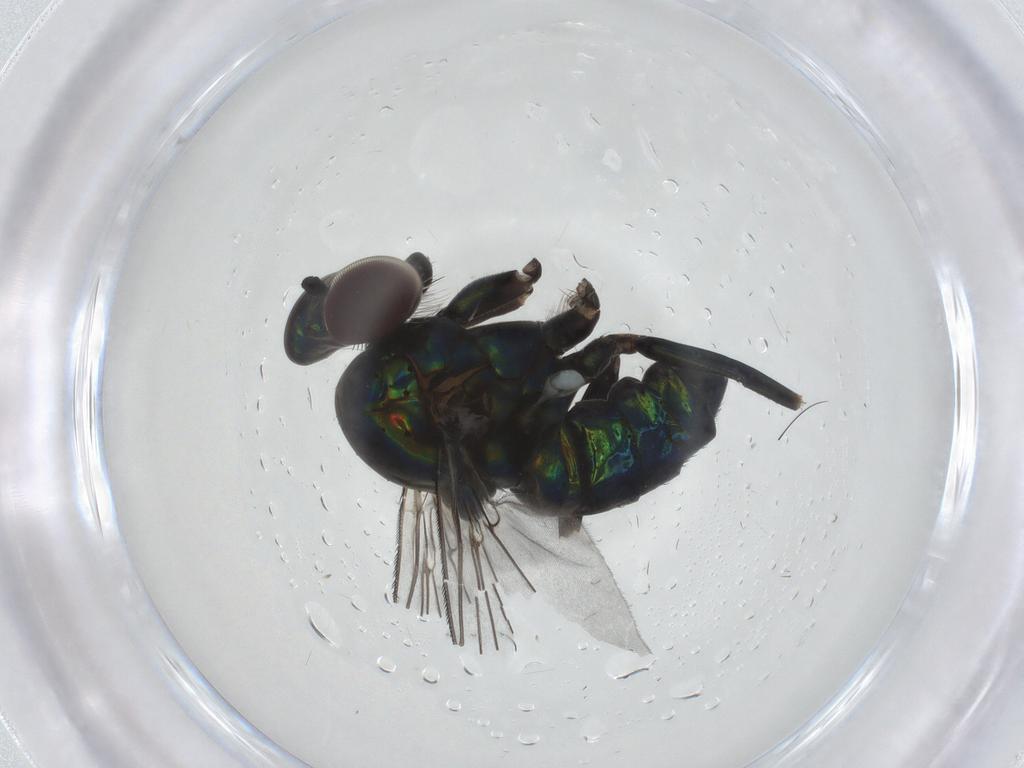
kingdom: Animalia
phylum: Arthropoda
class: Insecta
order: Diptera
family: Dolichopodidae
